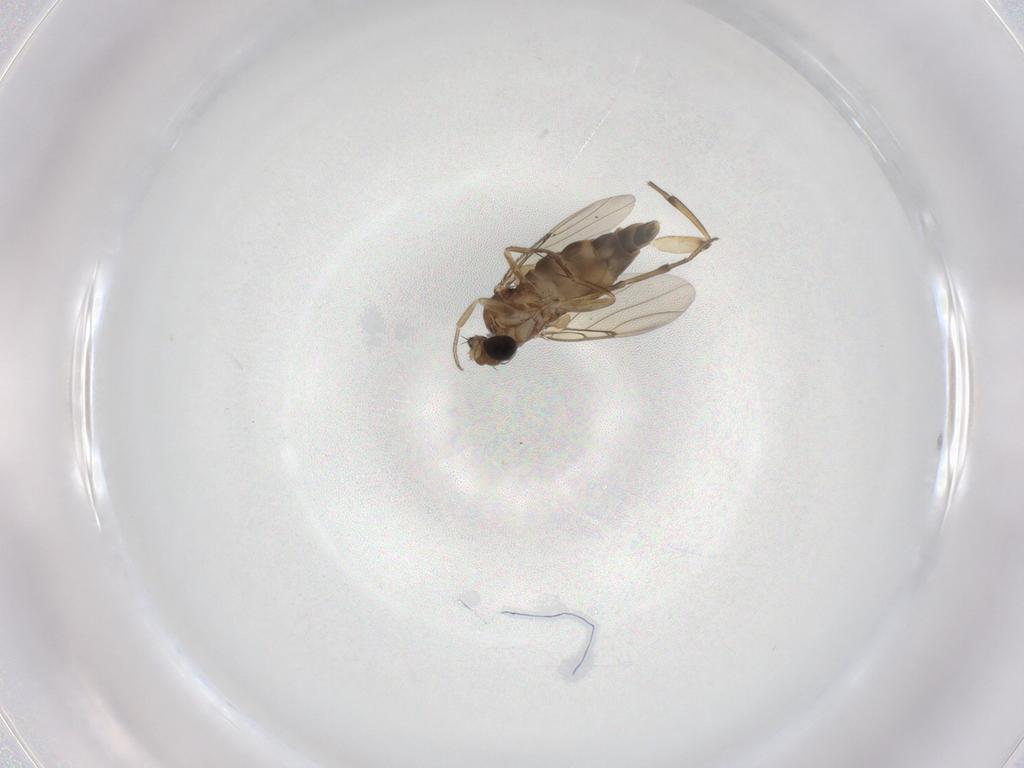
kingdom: Animalia
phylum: Arthropoda
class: Insecta
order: Diptera
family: Phoridae
